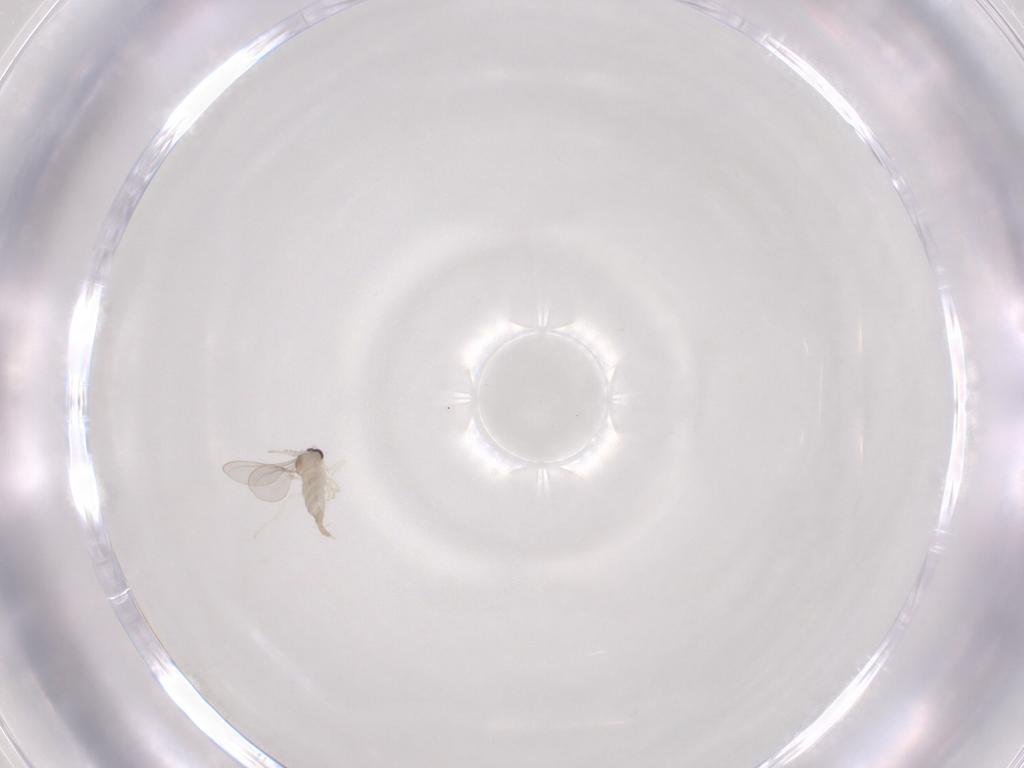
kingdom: Animalia
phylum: Arthropoda
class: Insecta
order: Diptera
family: Cecidomyiidae
